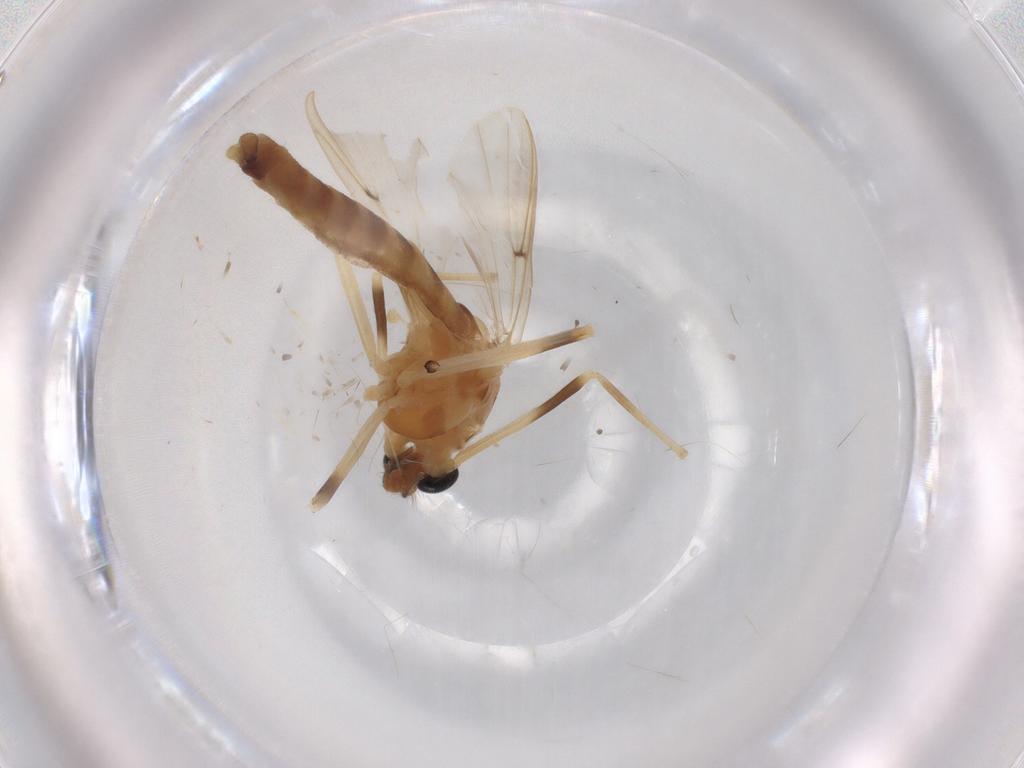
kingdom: Animalia
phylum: Arthropoda
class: Insecta
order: Diptera
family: Chironomidae
